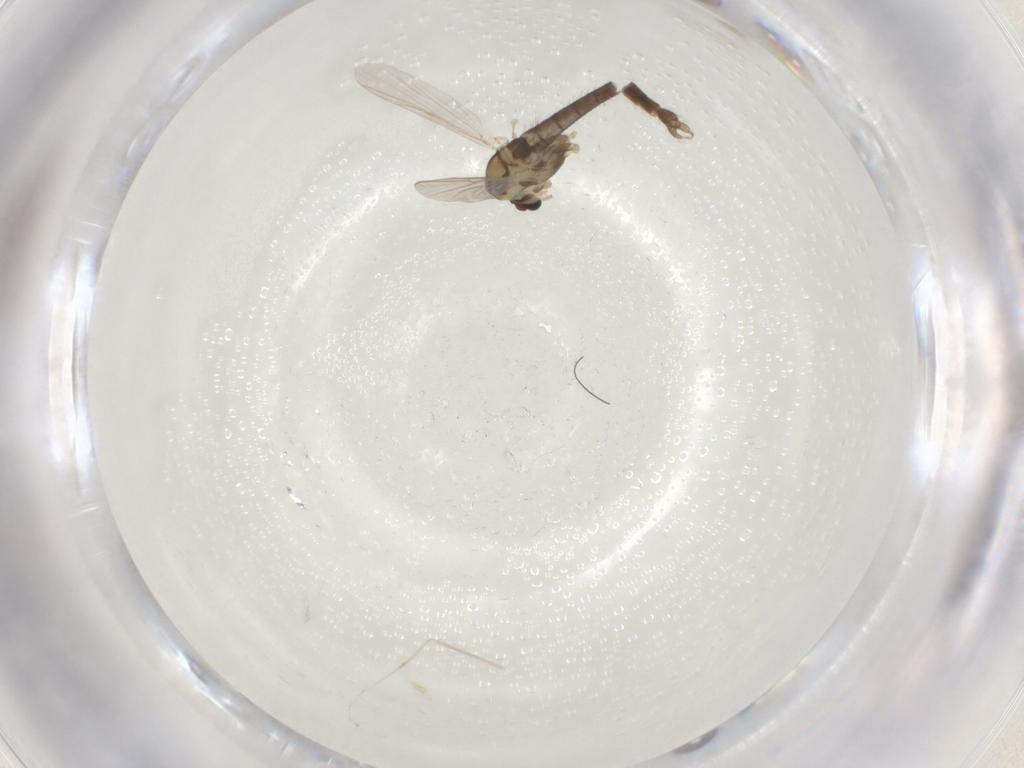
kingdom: Animalia
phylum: Arthropoda
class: Insecta
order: Diptera
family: Chironomidae
